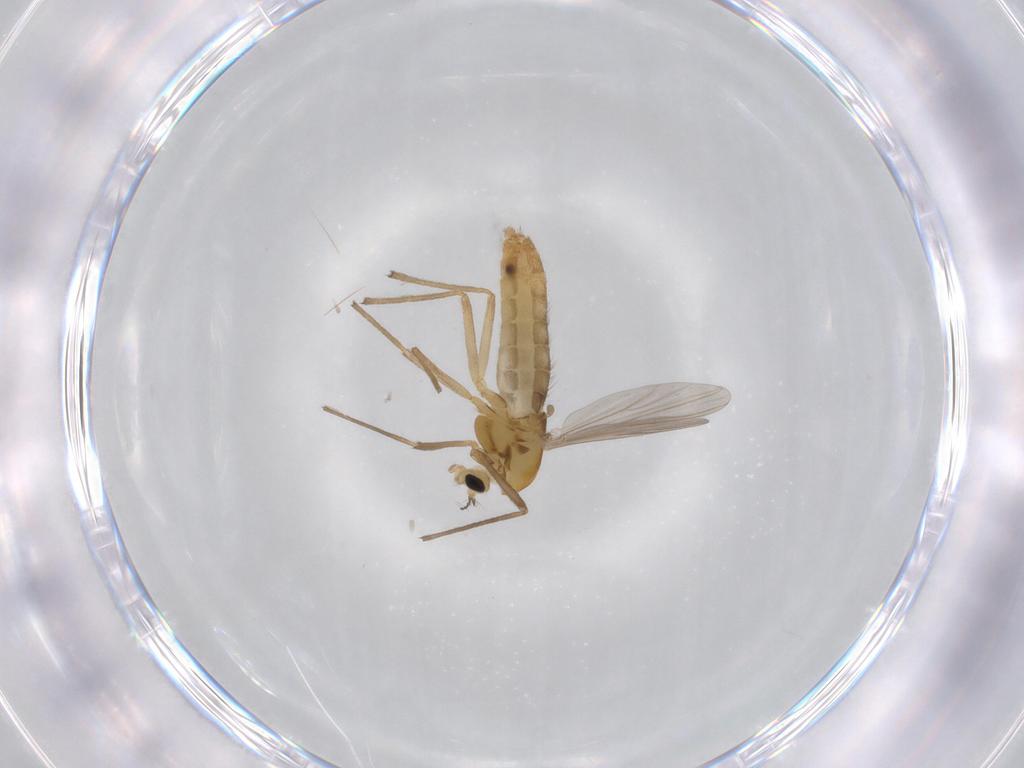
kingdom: Animalia
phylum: Arthropoda
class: Insecta
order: Diptera
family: Chironomidae
